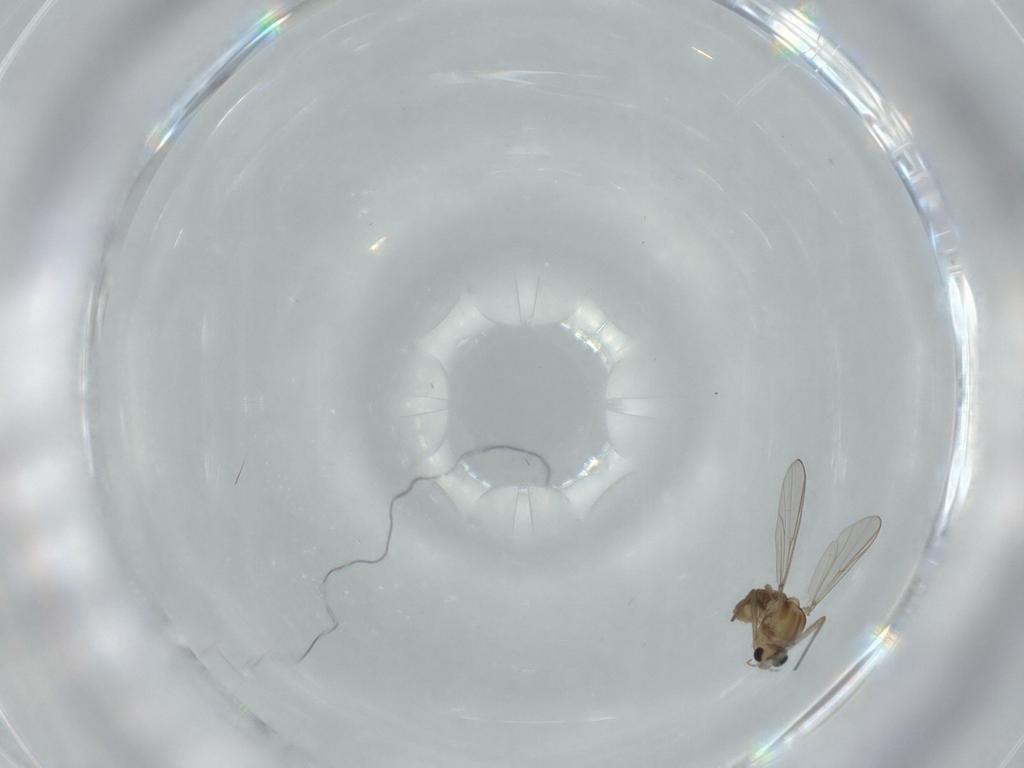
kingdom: Animalia
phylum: Arthropoda
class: Insecta
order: Diptera
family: Chironomidae
